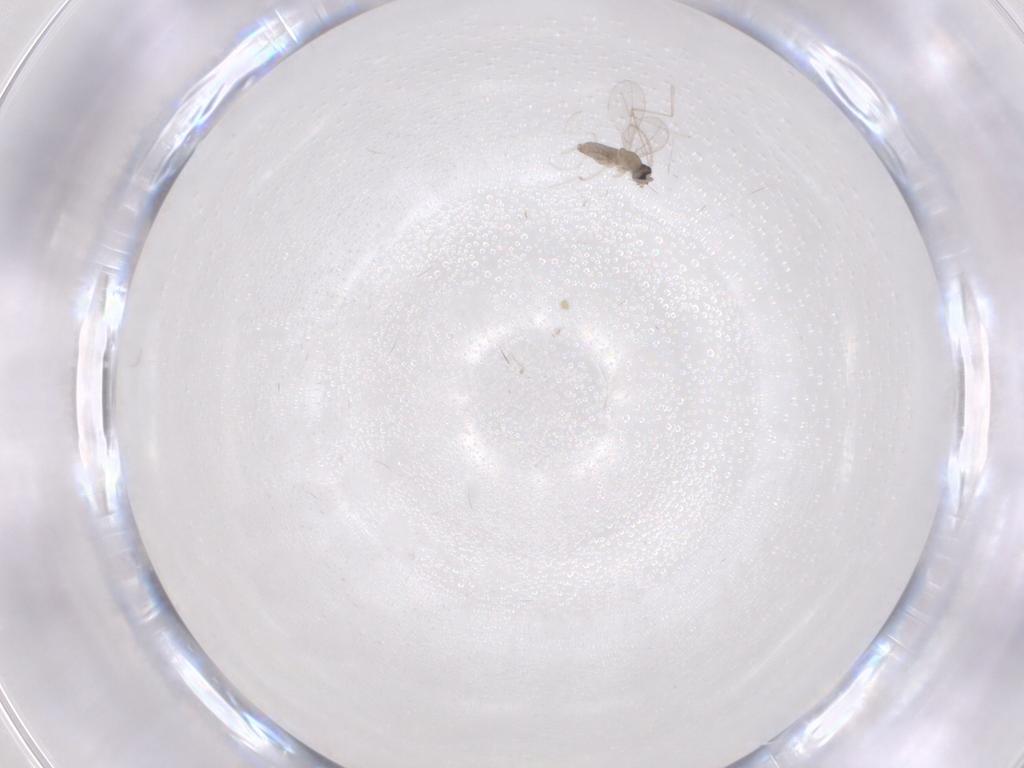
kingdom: Animalia
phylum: Arthropoda
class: Insecta
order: Diptera
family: Cecidomyiidae
